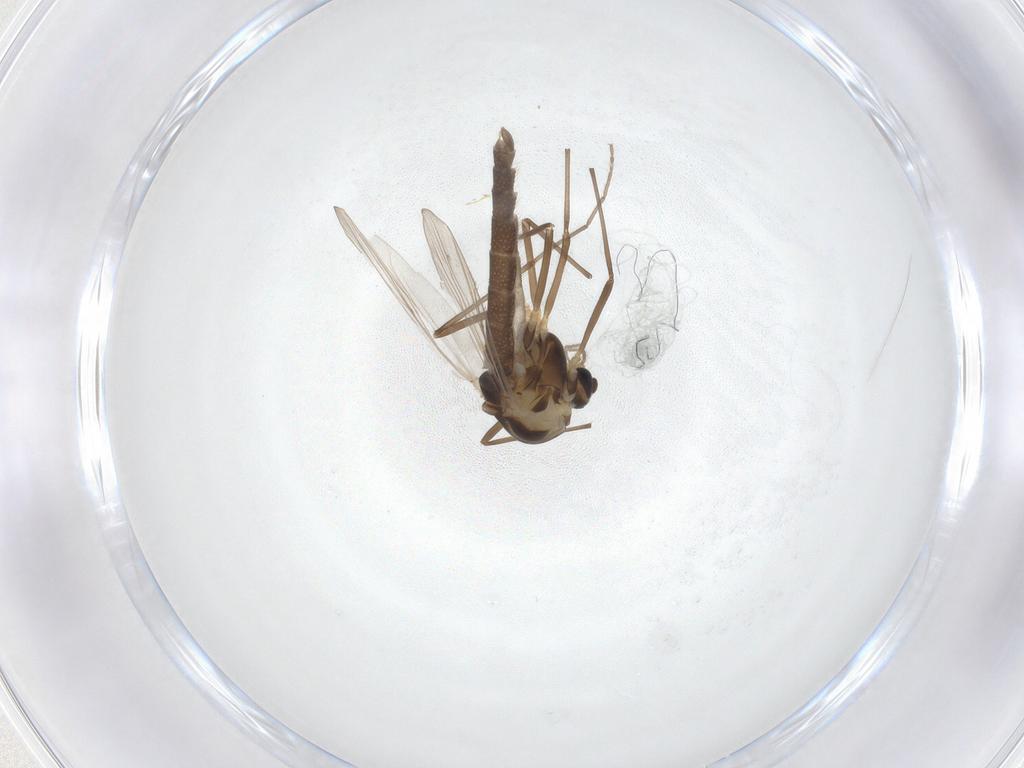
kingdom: Animalia
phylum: Arthropoda
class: Insecta
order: Diptera
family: Chironomidae
